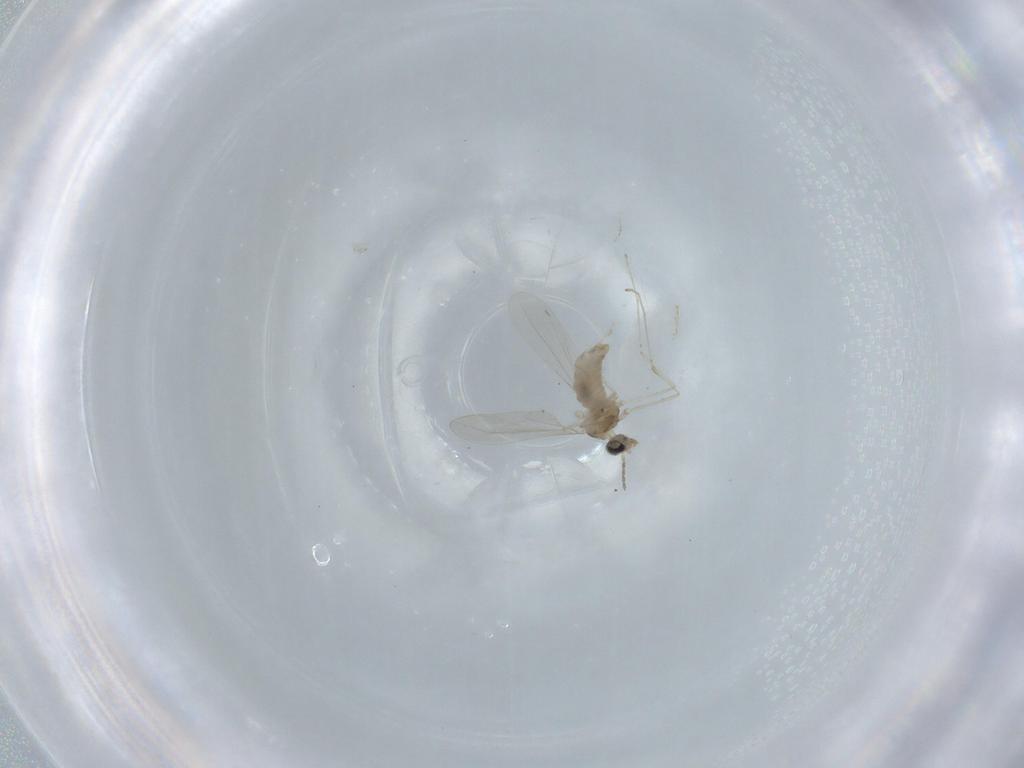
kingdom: Animalia
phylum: Arthropoda
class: Insecta
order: Diptera
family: Anthomyiidae
